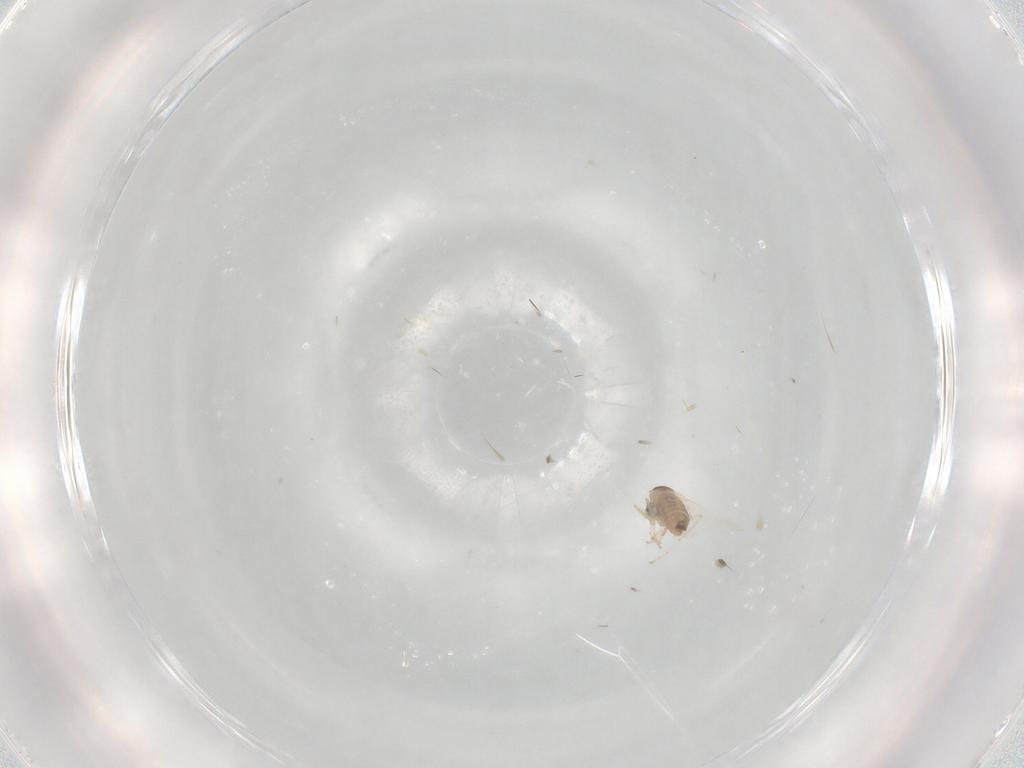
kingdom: Animalia
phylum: Arthropoda
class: Insecta
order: Diptera
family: Cecidomyiidae
